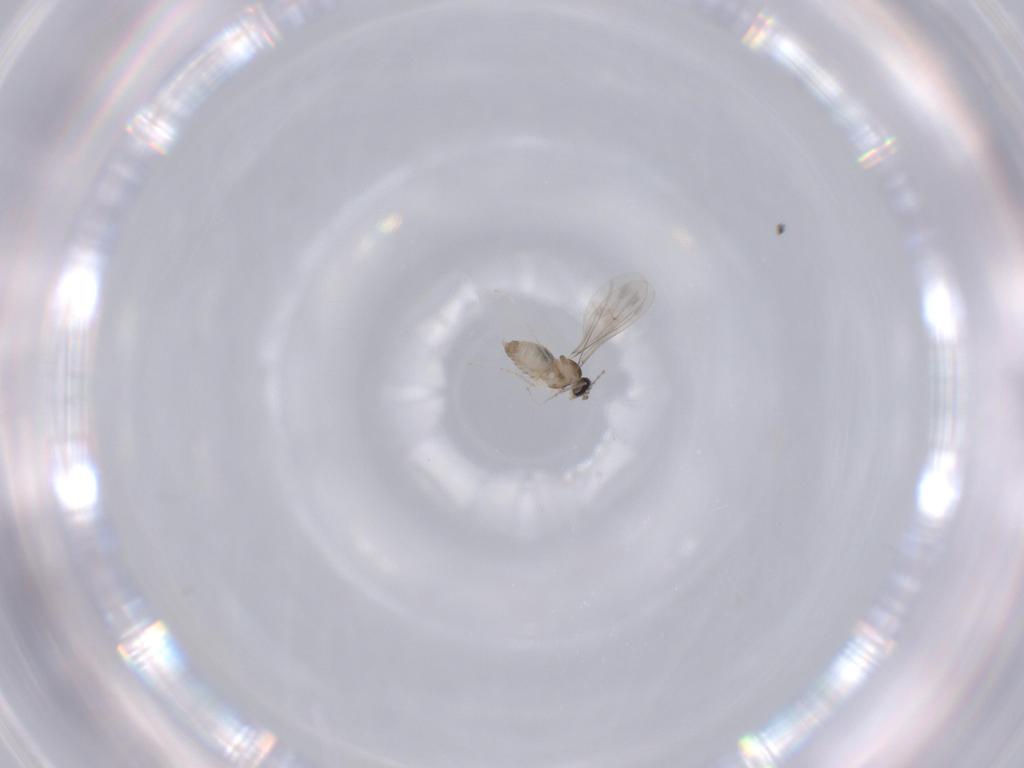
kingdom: Animalia
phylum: Arthropoda
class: Insecta
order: Diptera
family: Cecidomyiidae
